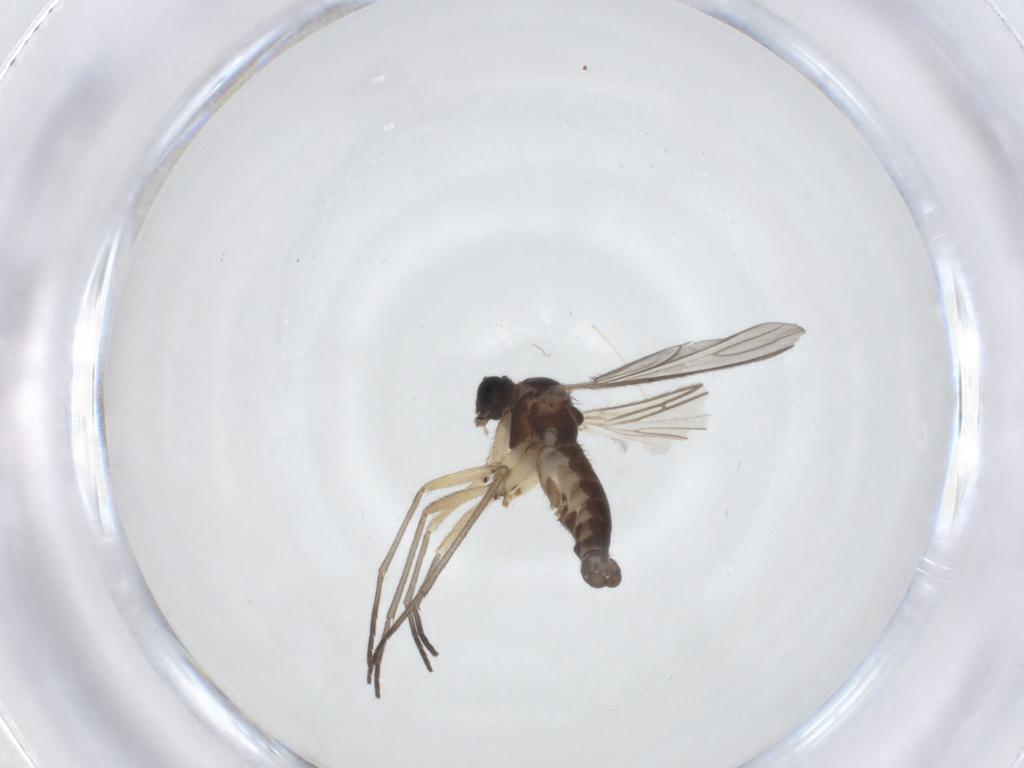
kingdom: Animalia
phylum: Arthropoda
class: Insecta
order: Diptera
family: Sciaridae
